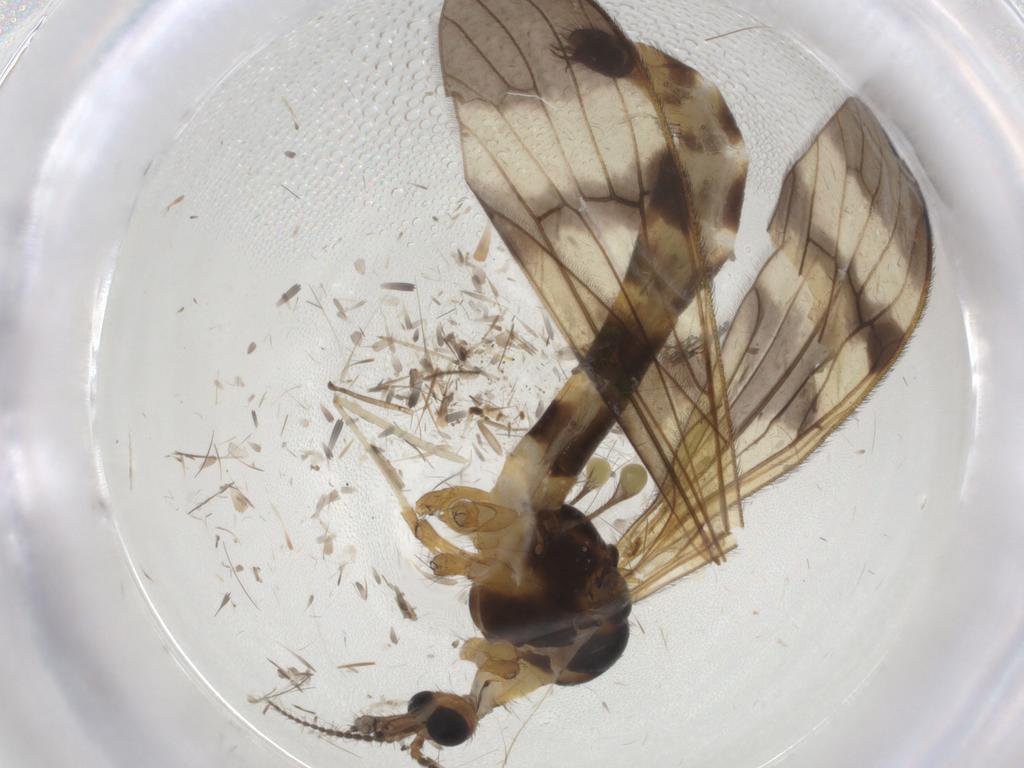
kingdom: Animalia
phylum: Arthropoda
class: Insecta
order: Diptera
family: Limoniidae
